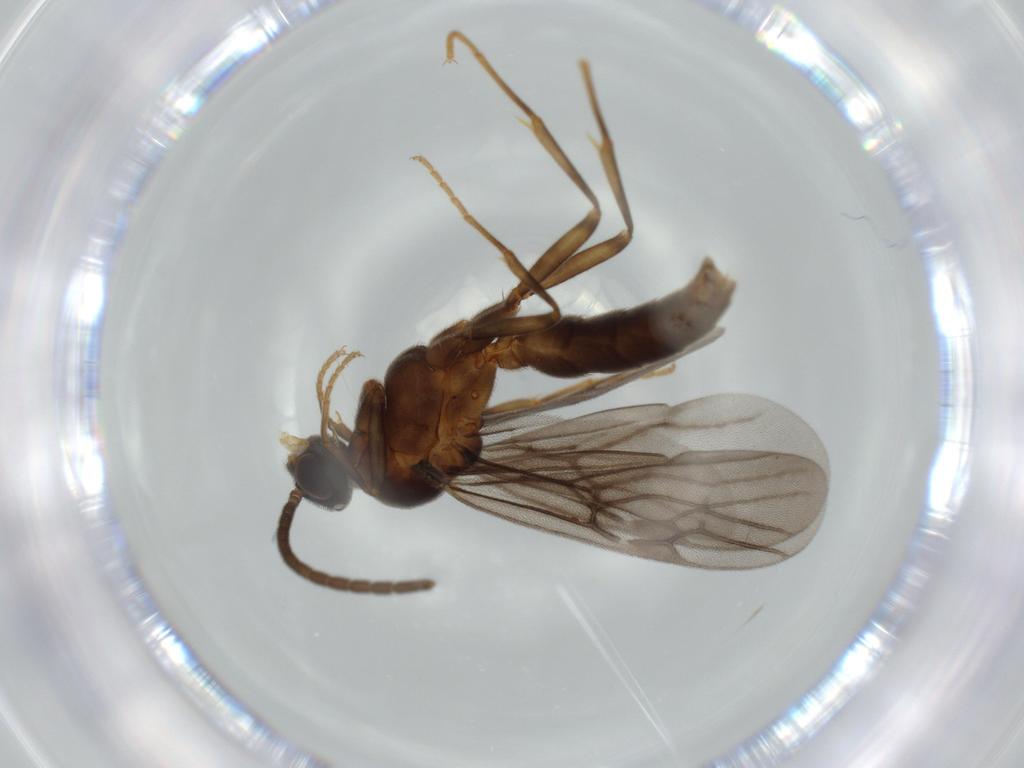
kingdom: Animalia
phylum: Arthropoda
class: Insecta
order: Hymenoptera
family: Formicidae
